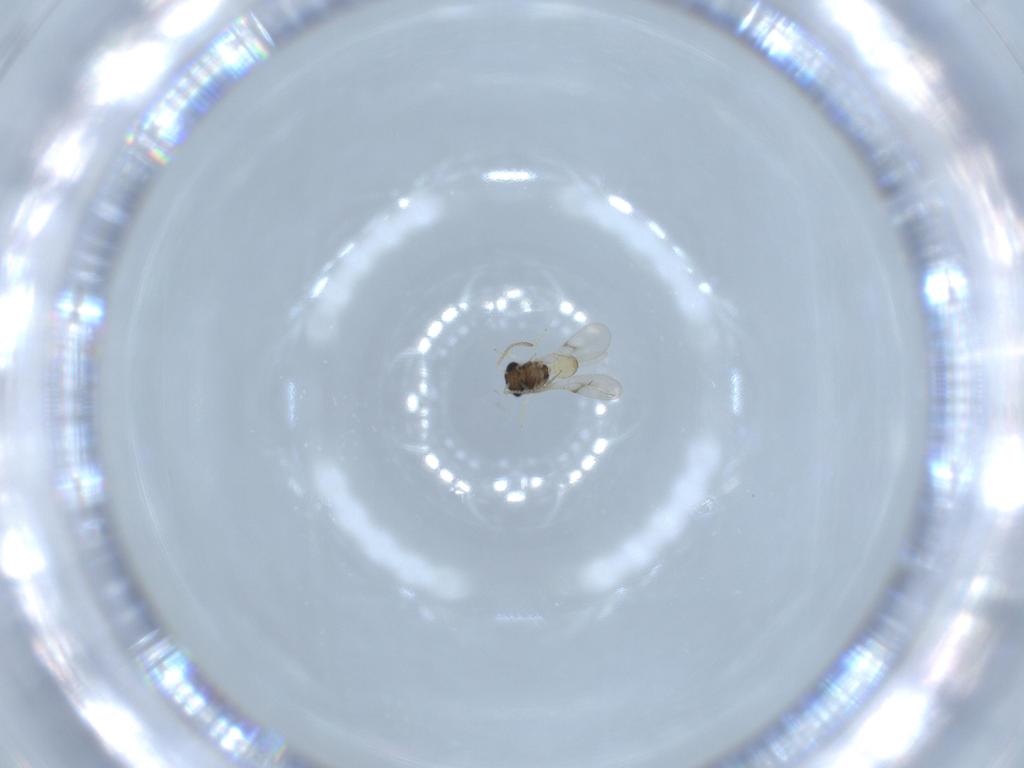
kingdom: Animalia
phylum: Arthropoda
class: Insecta
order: Hymenoptera
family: Scelionidae
